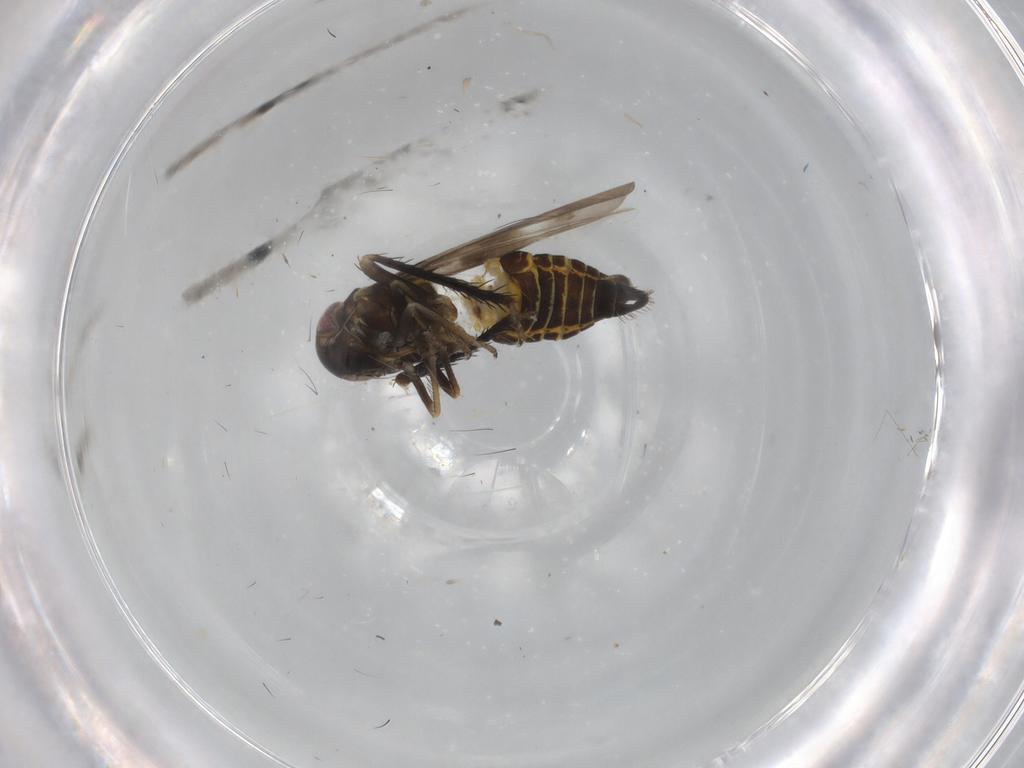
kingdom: Animalia
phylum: Arthropoda
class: Insecta
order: Hemiptera
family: Cicadellidae
